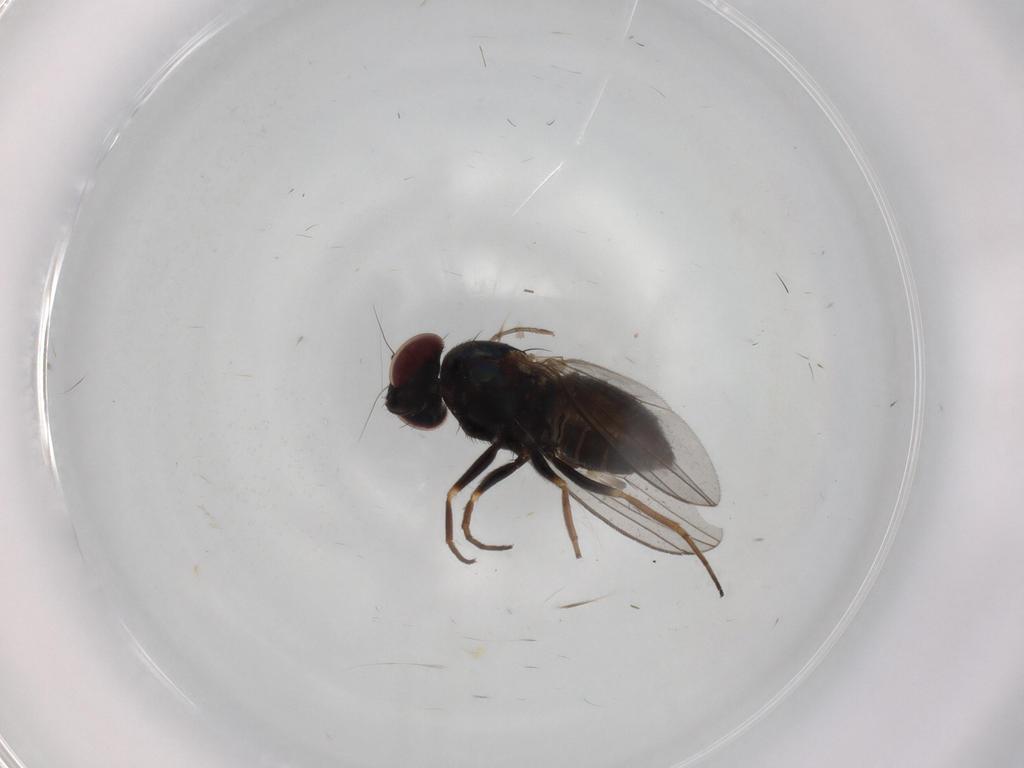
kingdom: Animalia
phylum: Arthropoda
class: Insecta
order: Diptera
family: Dolichopodidae
